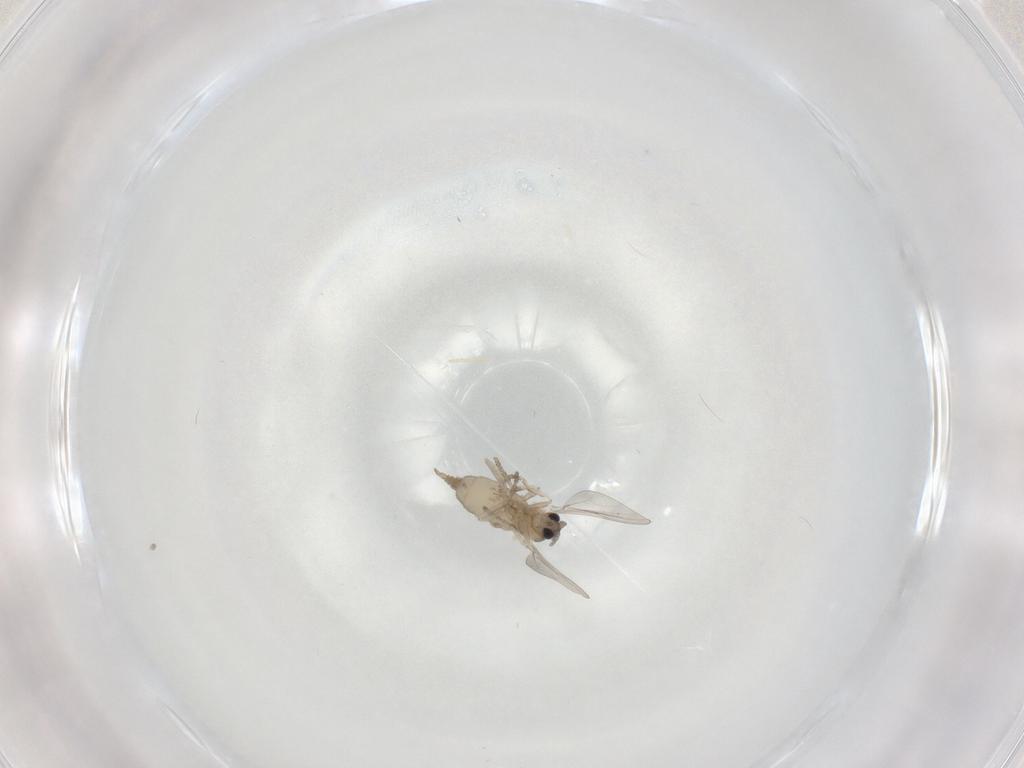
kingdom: Animalia
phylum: Arthropoda
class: Insecta
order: Diptera
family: Cecidomyiidae
